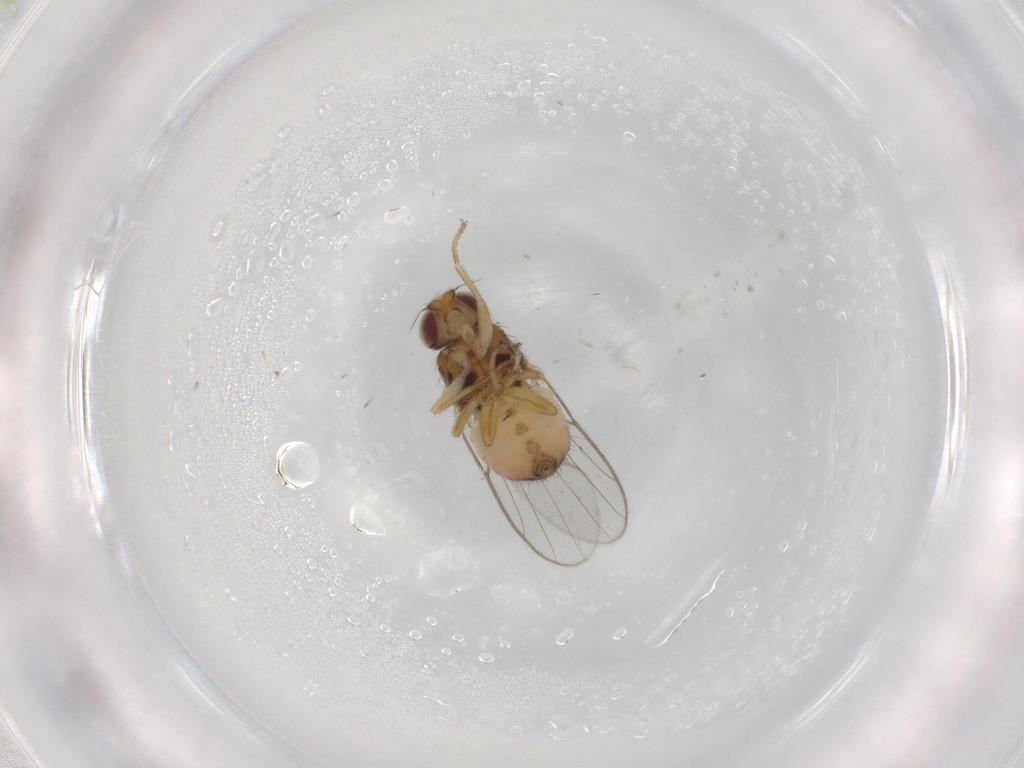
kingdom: Animalia
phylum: Arthropoda
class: Insecta
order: Diptera
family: Chloropidae
